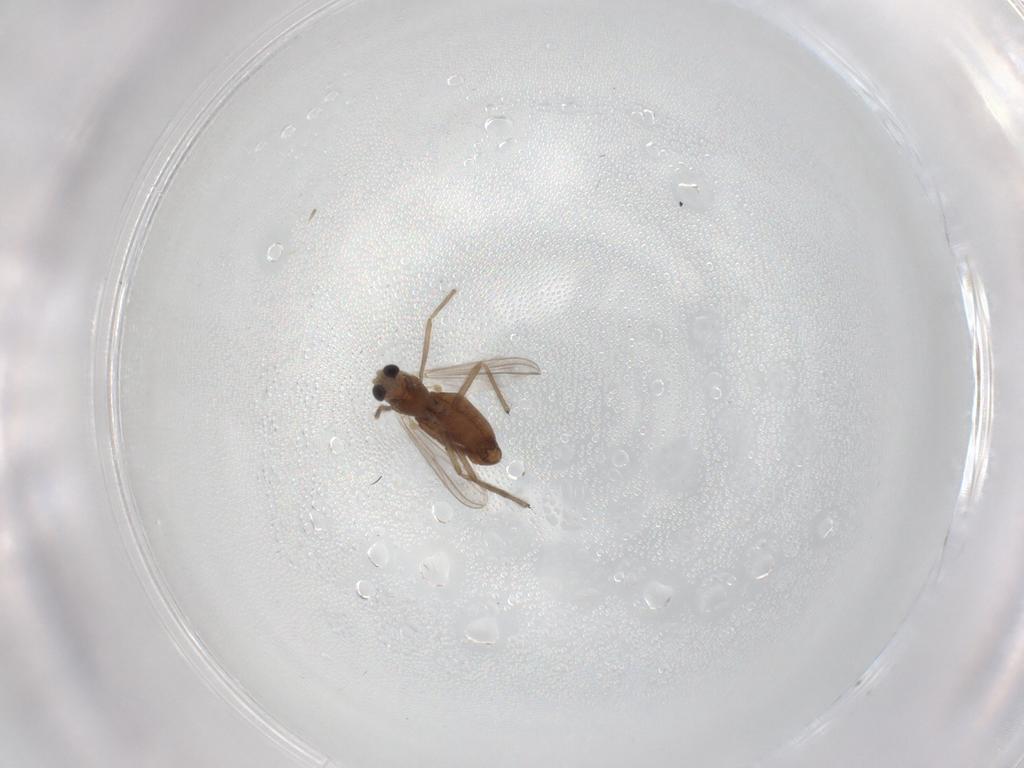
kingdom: Animalia
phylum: Arthropoda
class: Insecta
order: Diptera
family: Chironomidae
